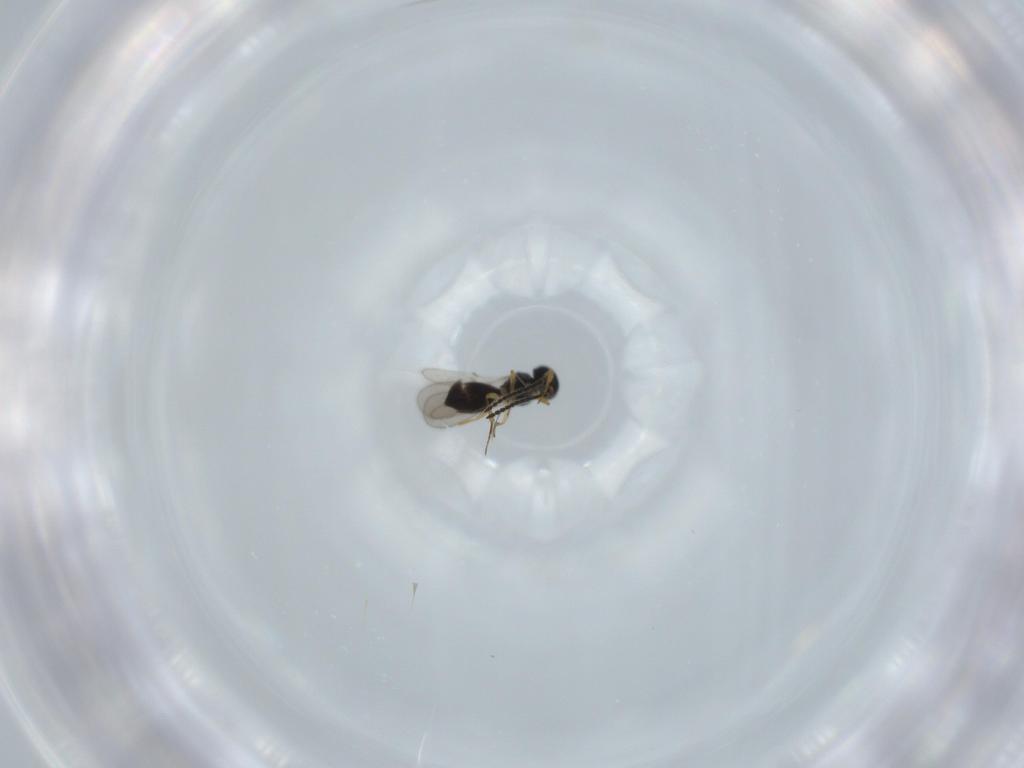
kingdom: Animalia
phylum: Arthropoda
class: Insecta
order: Hymenoptera
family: Scelionidae
